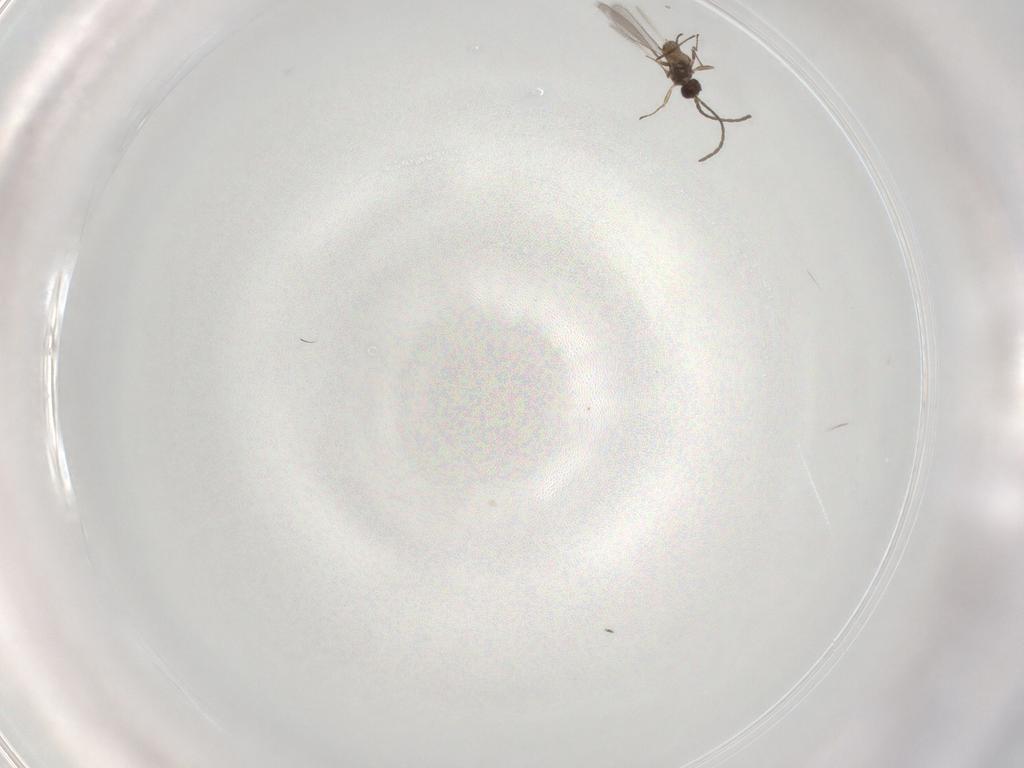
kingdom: Animalia
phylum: Arthropoda
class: Insecta
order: Hymenoptera
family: Mymaridae
